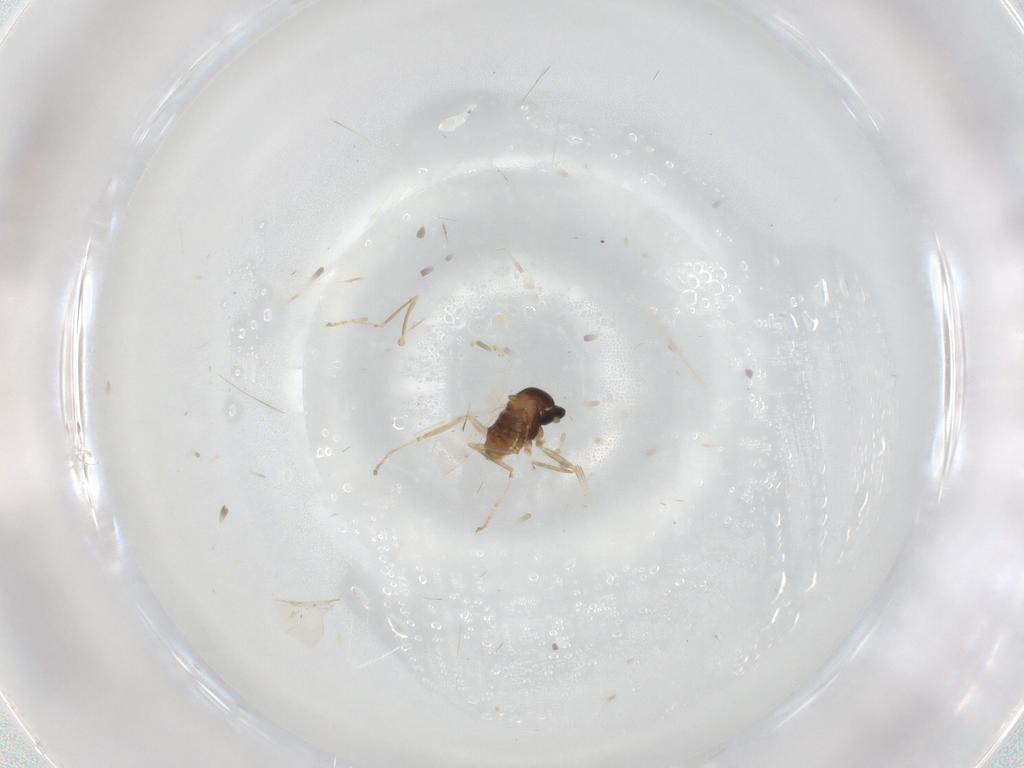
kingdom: Animalia
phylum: Arthropoda
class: Insecta
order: Diptera
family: Cecidomyiidae
